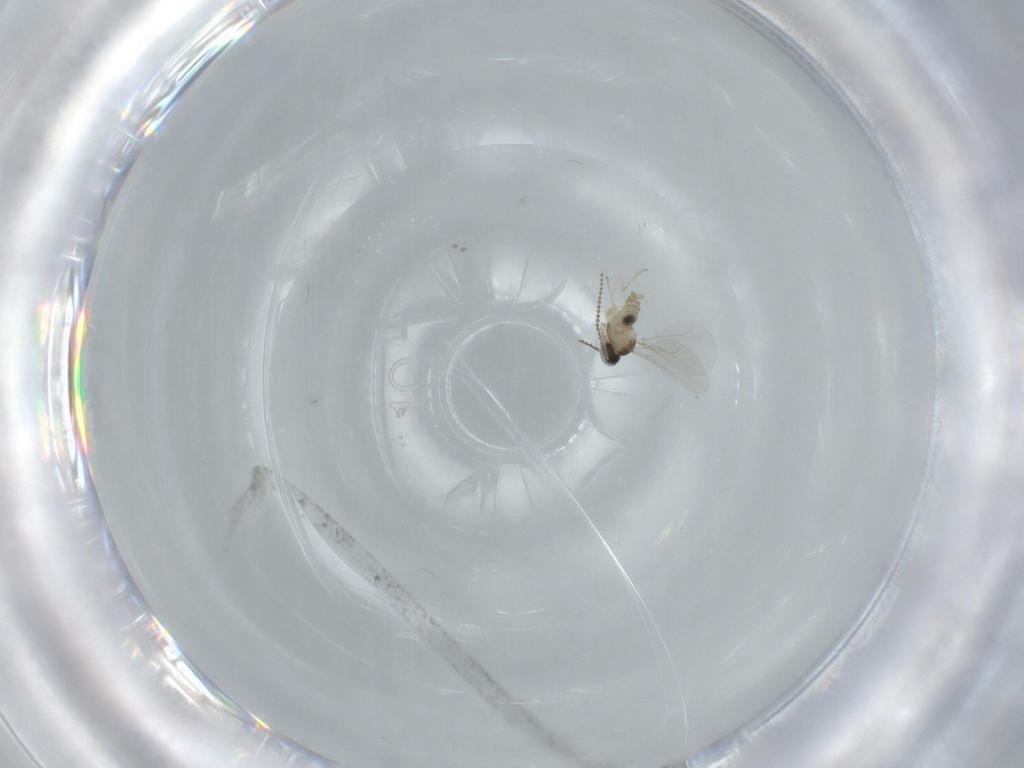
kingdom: Animalia
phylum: Arthropoda
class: Insecta
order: Diptera
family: Cecidomyiidae
